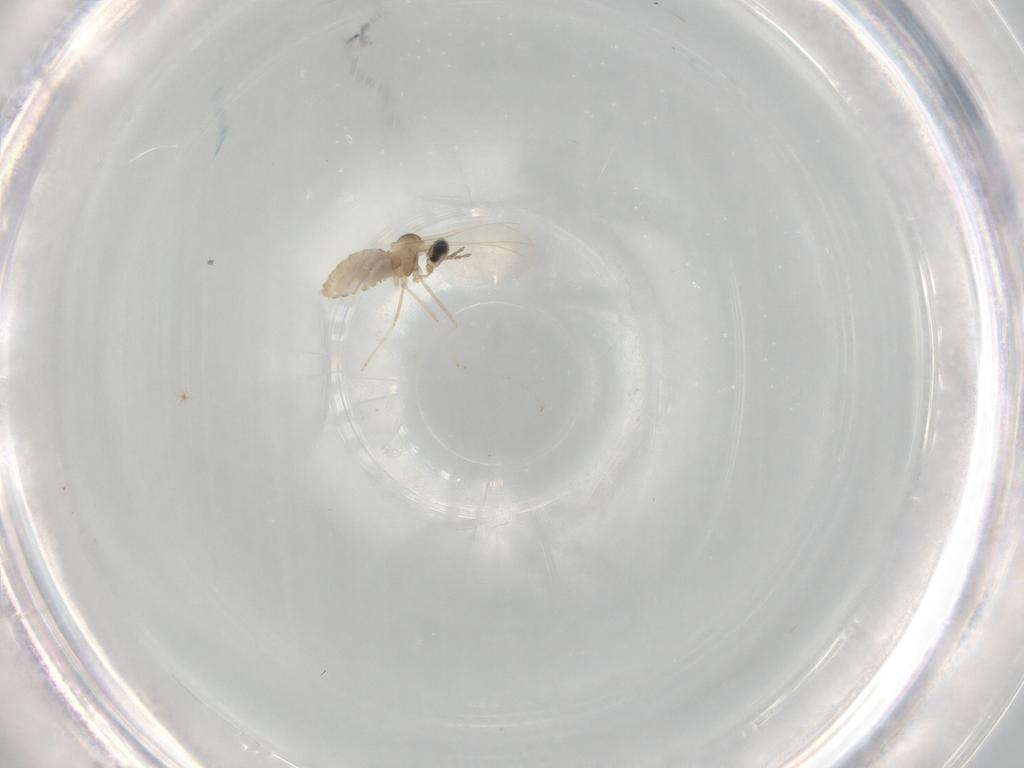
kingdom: Animalia
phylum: Arthropoda
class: Insecta
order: Diptera
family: Cecidomyiidae
